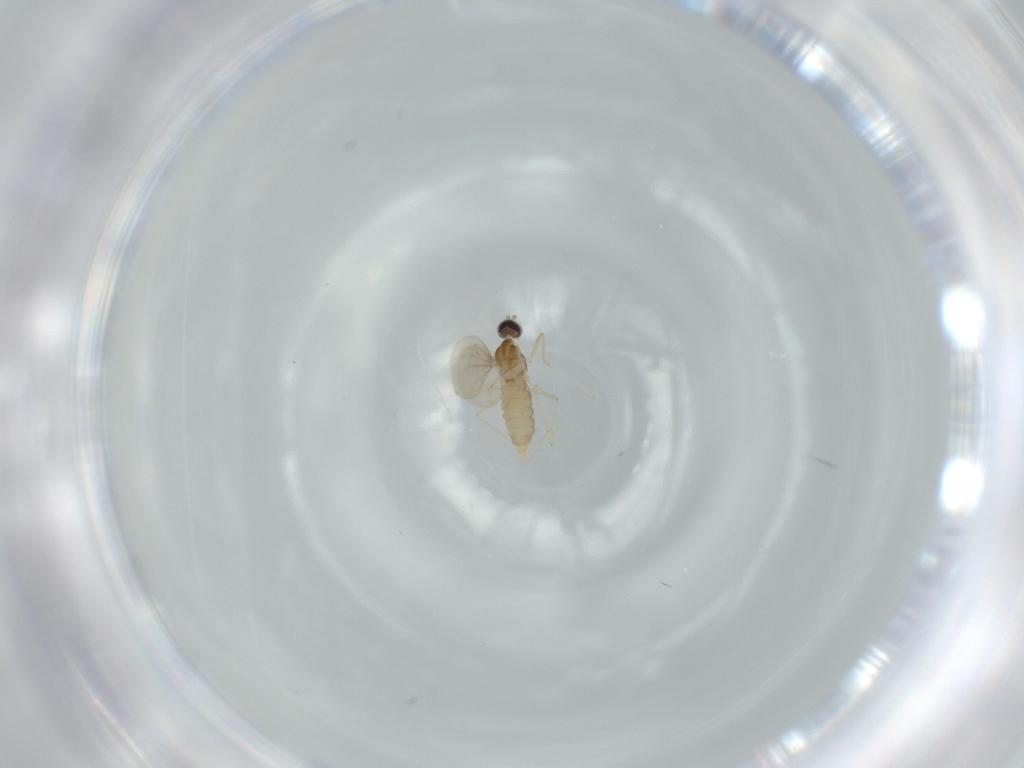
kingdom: Animalia
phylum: Arthropoda
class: Insecta
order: Diptera
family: Cecidomyiidae
